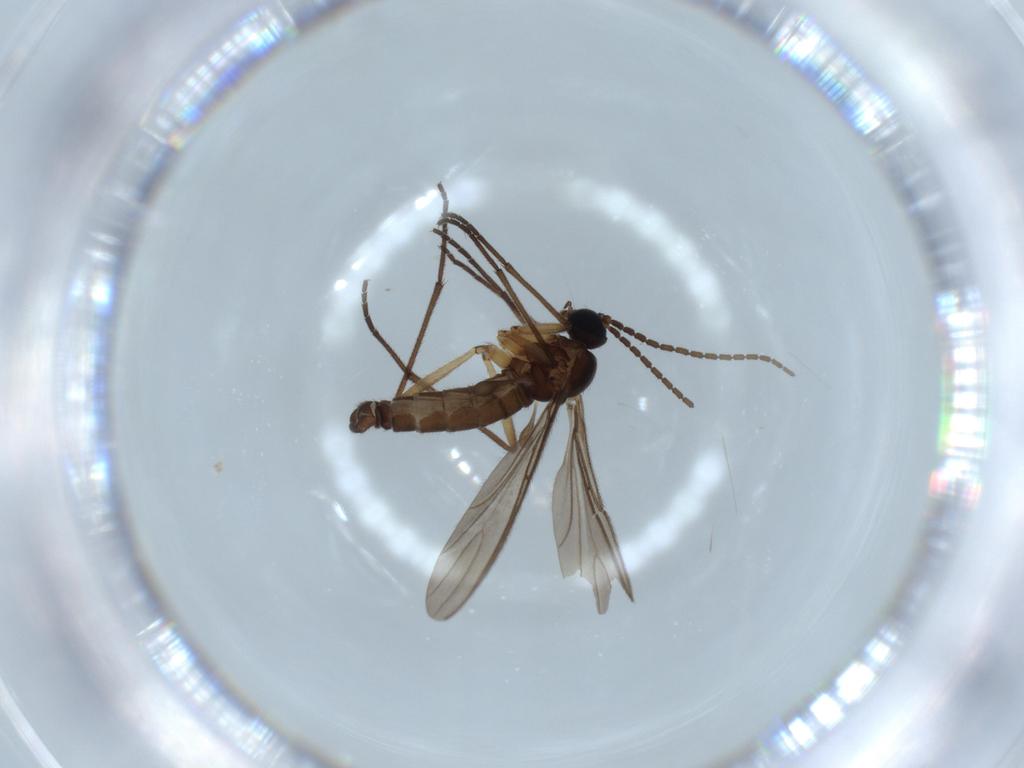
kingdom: Animalia
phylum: Arthropoda
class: Insecta
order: Diptera
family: Sciaridae
